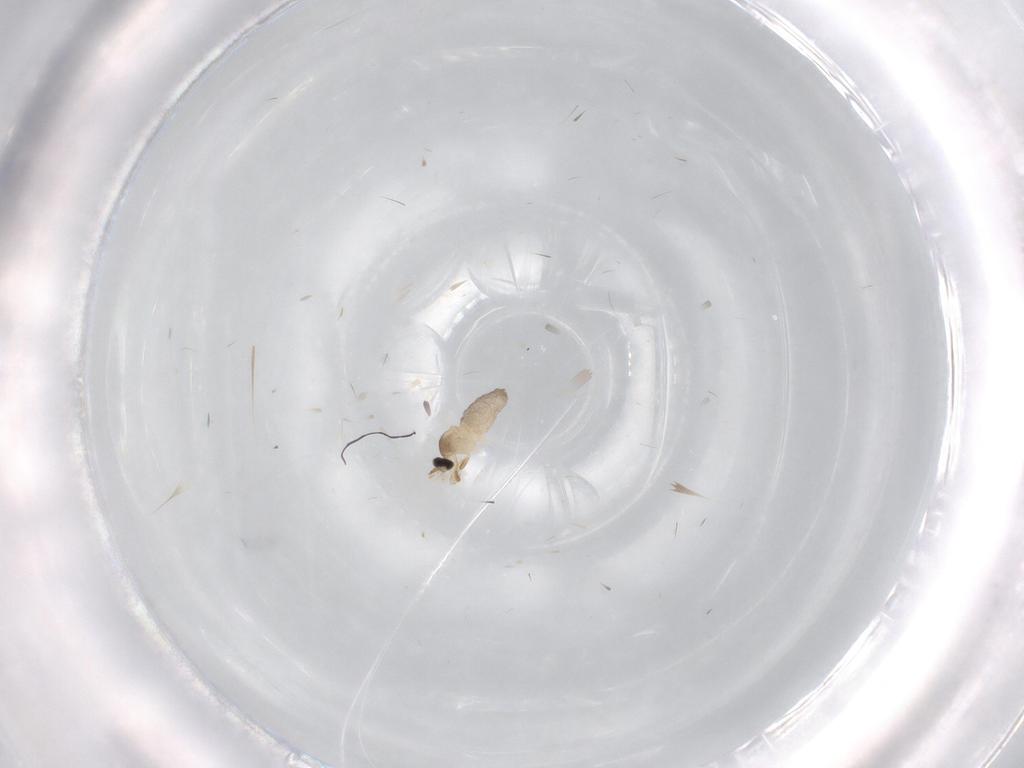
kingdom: Animalia
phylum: Arthropoda
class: Insecta
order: Diptera
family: Cecidomyiidae
